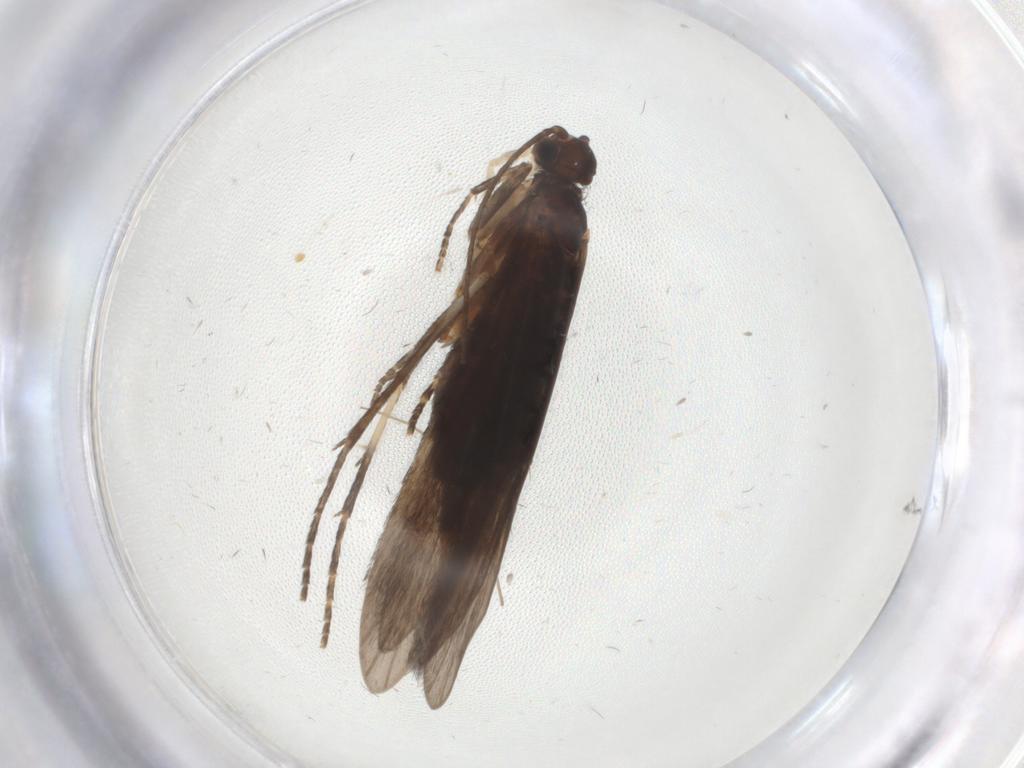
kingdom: Animalia
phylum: Arthropoda
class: Insecta
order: Trichoptera
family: Xiphocentronidae
